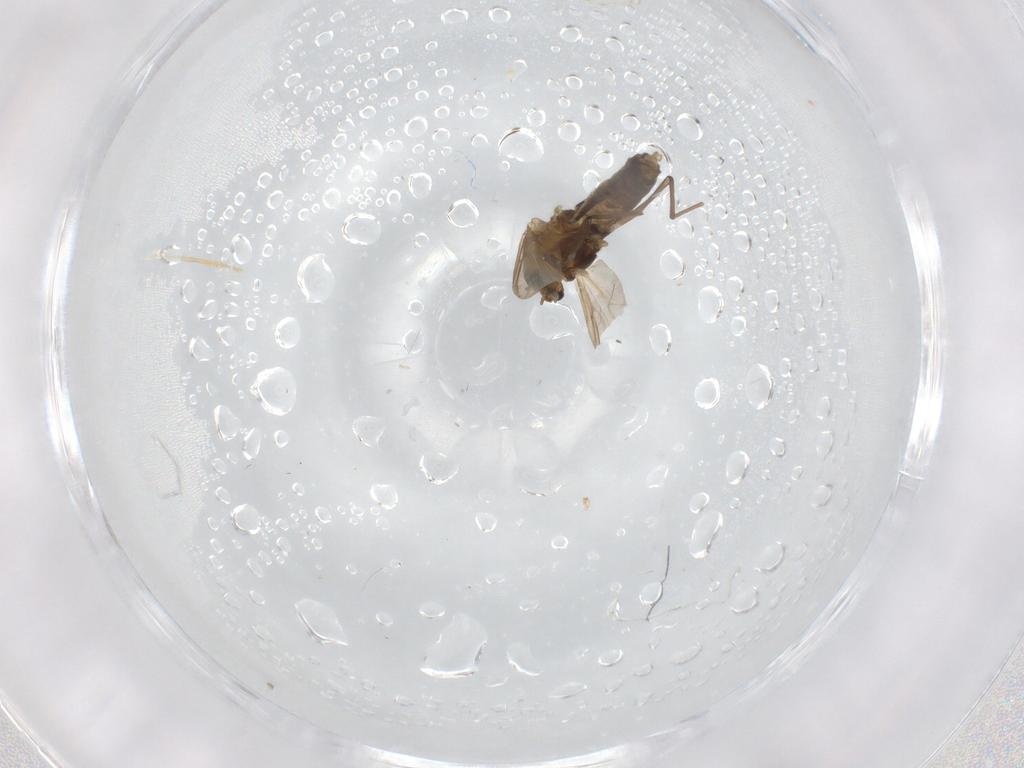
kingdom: Animalia
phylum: Arthropoda
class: Insecta
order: Diptera
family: Chironomidae
